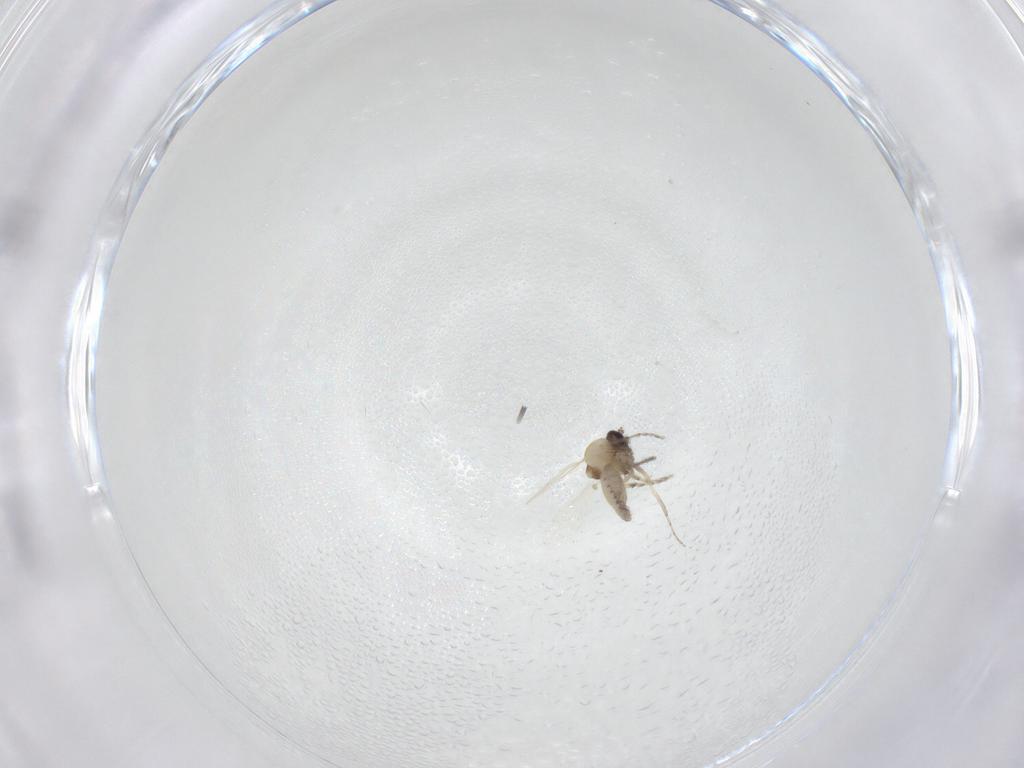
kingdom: Animalia
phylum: Arthropoda
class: Insecta
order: Diptera
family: Ceratopogonidae
